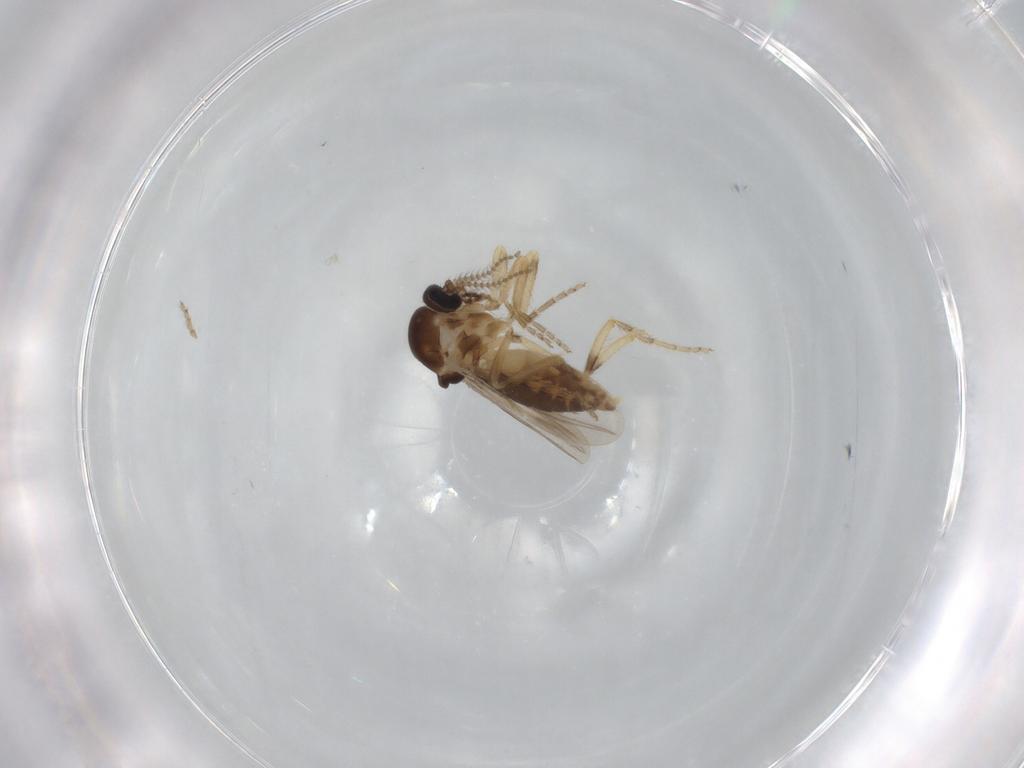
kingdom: Animalia
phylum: Arthropoda
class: Insecta
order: Diptera
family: Ceratopogonidae
